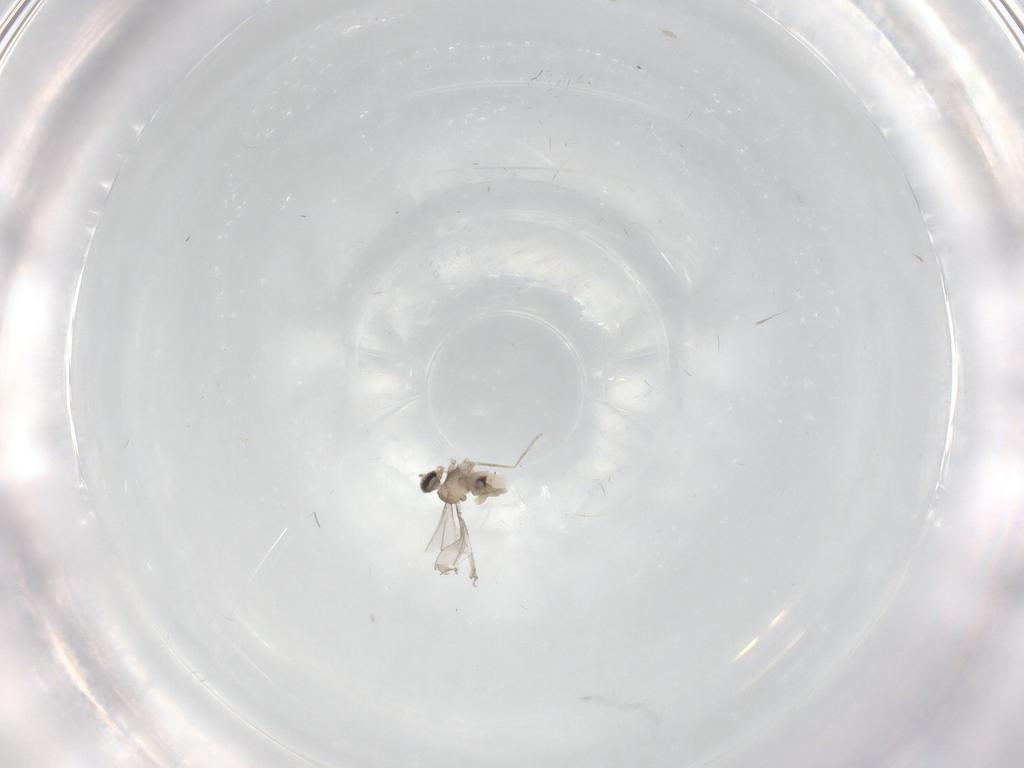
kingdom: Animalia
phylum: Arthropoda
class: Insecta
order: Diptera
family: Cecidomyiidae
